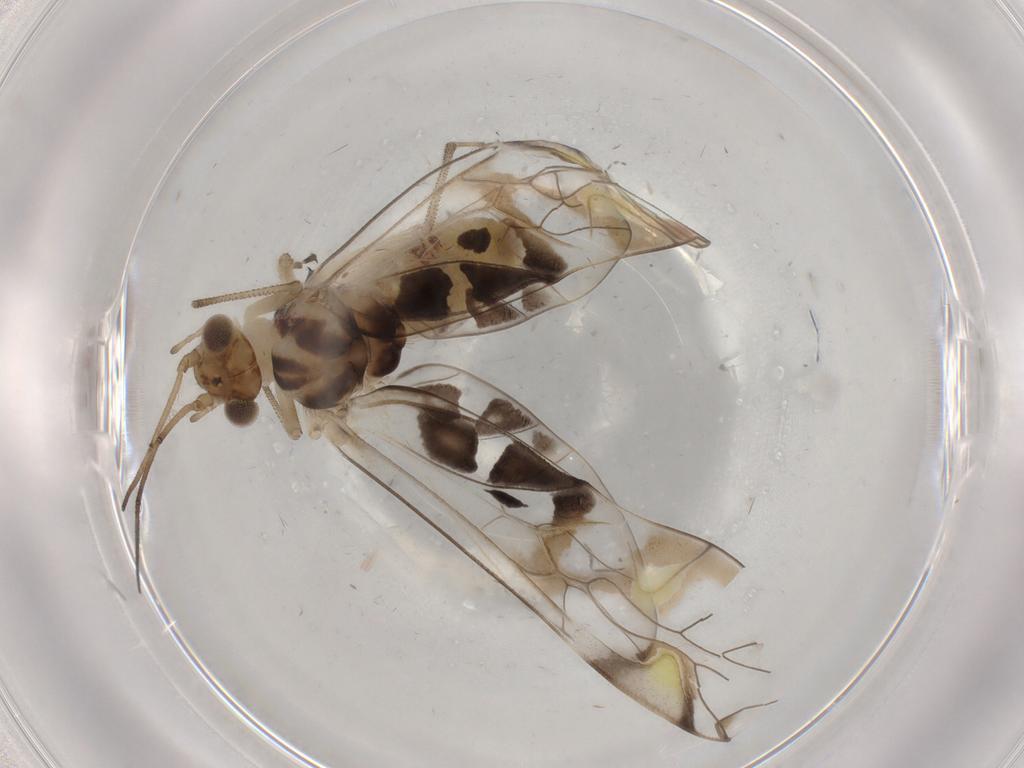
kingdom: Animalia
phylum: Arthropoda
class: Insecta
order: Psocodea
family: Amphipsocidae
